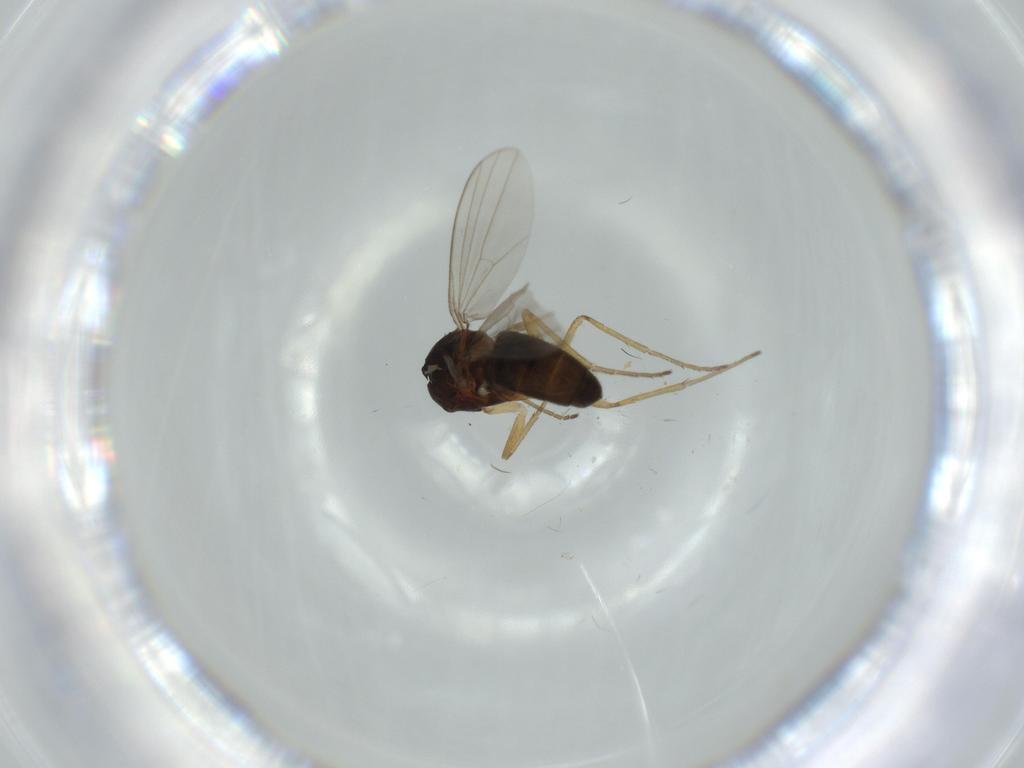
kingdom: Animalia
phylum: Arthropoda
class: Insecta
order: Diptera
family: Dolichopodidae
